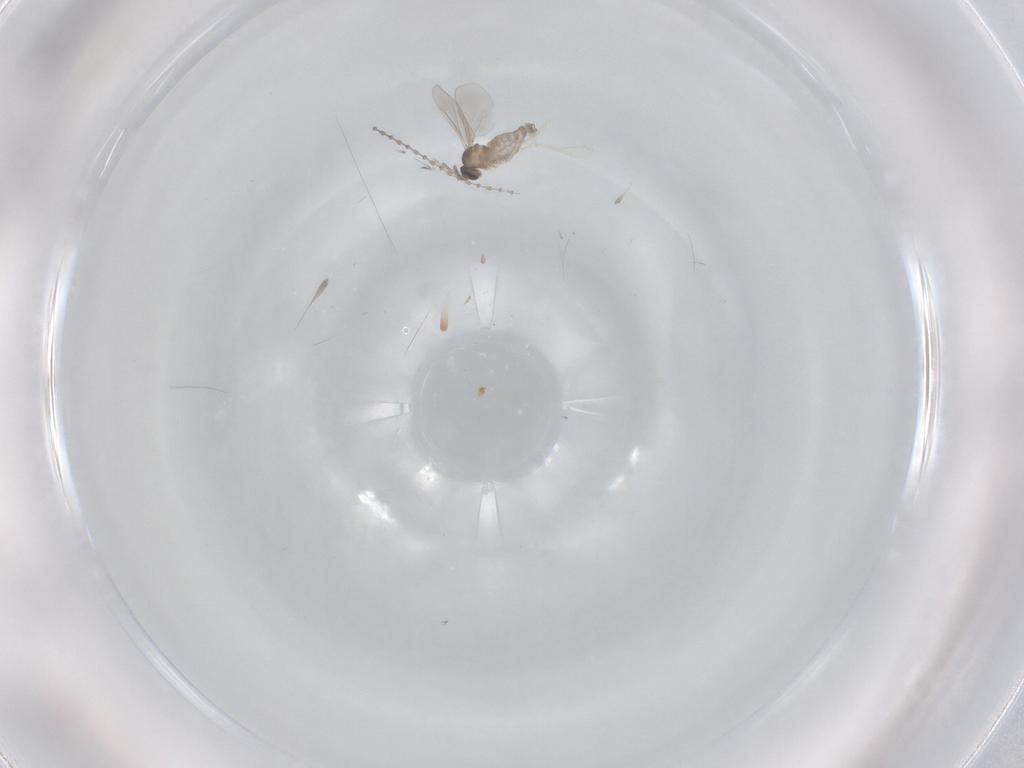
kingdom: Animalia
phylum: Arthropoda
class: Insecta
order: Diptera
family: Cecidomyiidae
